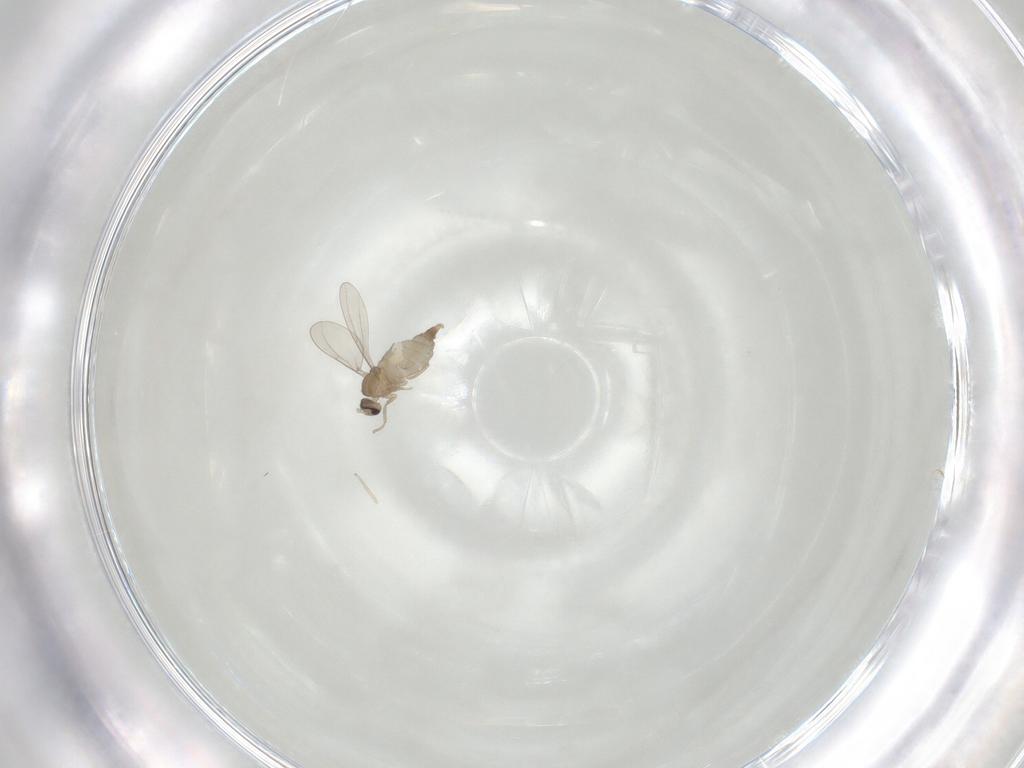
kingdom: Animalia
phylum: Arthropoda
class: Insecta
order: Diptera
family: Cecidomyiidae
